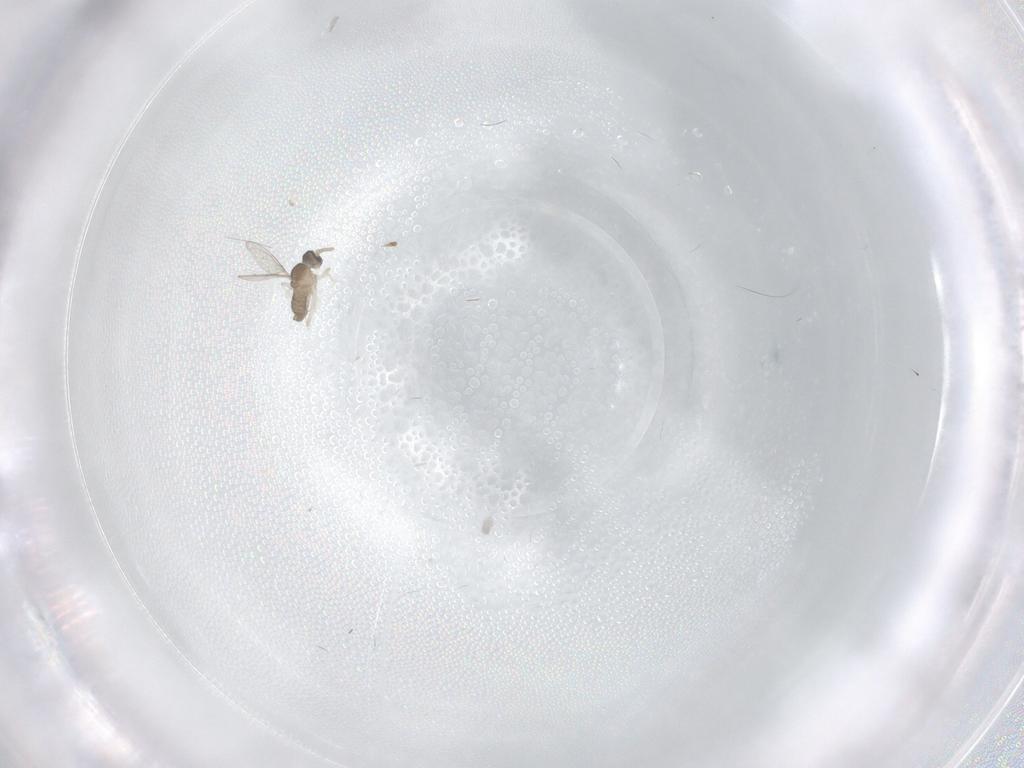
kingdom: Animalia
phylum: Arthropoda
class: Insecta
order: Diptera
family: Cecidomyiidae
